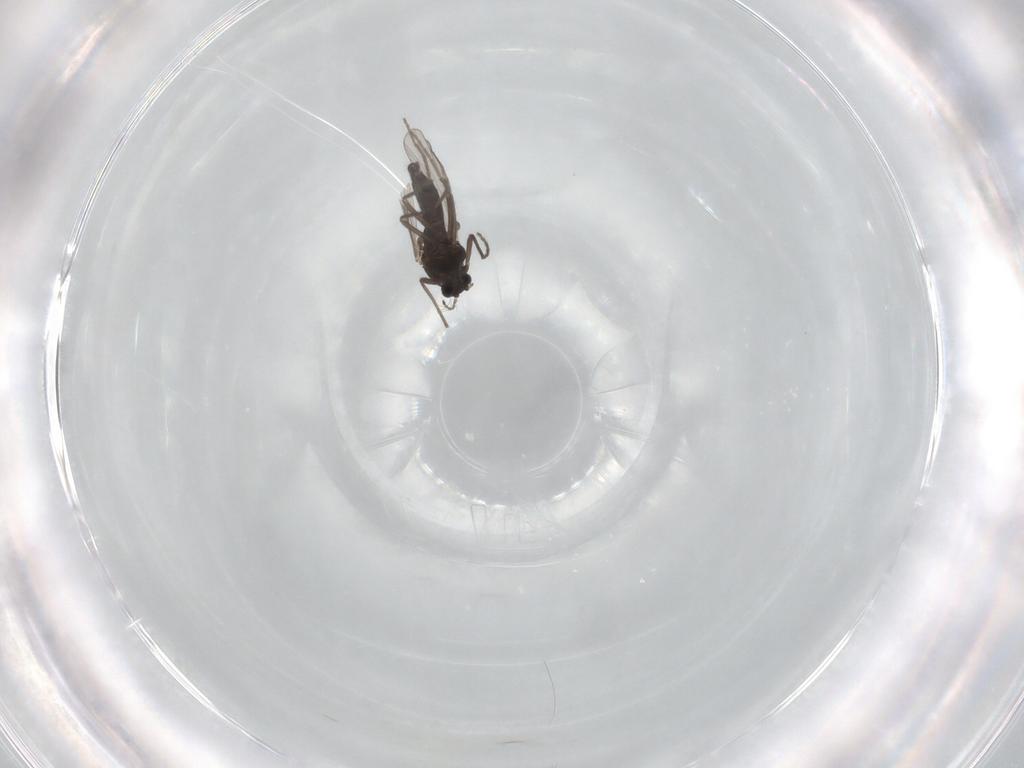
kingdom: Animalia
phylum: Arthropoda
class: Insecta
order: Diptera
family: Chironomidae
